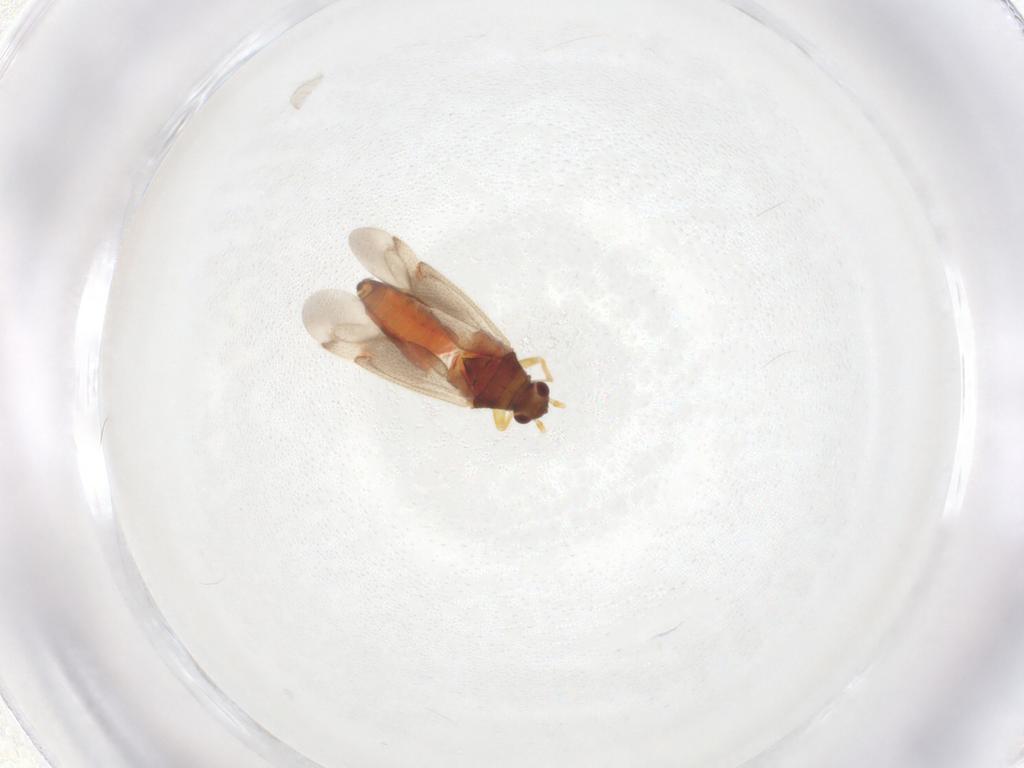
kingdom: Animalia
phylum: Arthropoda
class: Insecta
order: Hemiptera
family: Miridae
